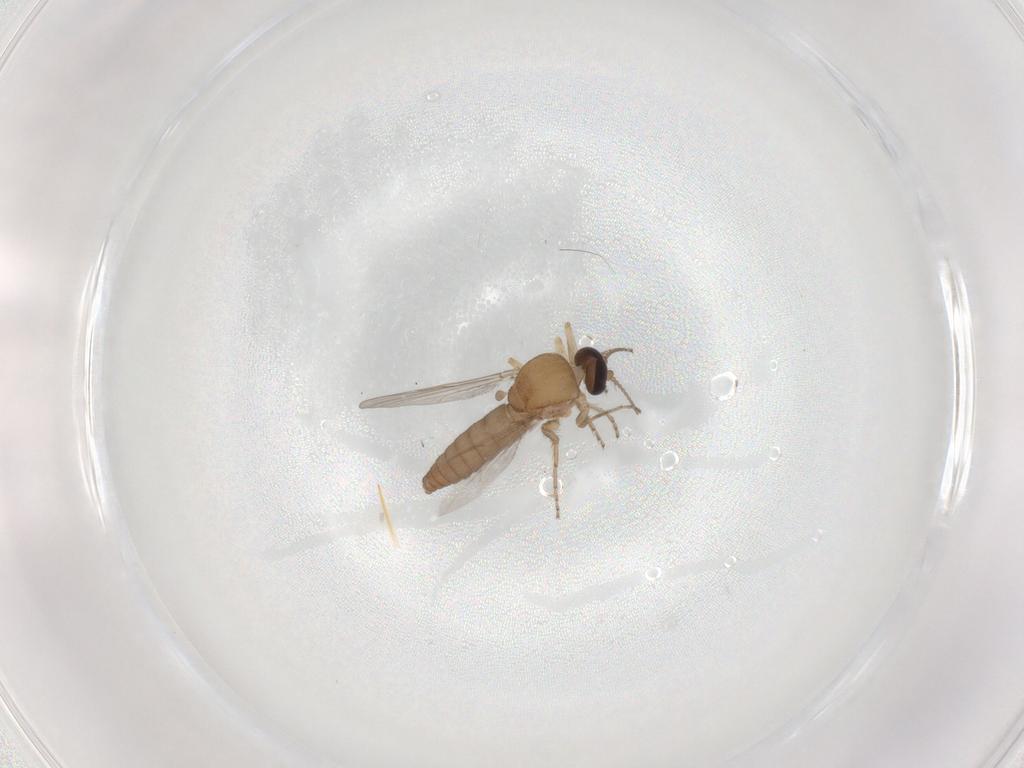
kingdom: Animalia
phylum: Arthropoda
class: Insecta
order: Diptera
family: Ceratopogonidae
